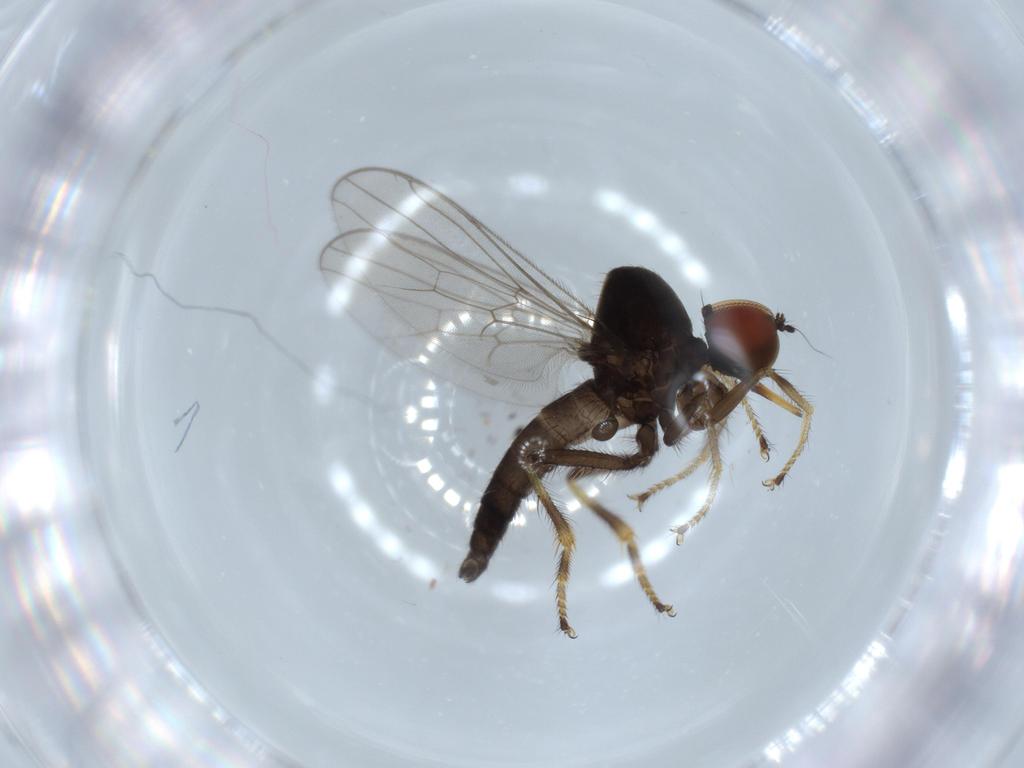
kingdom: Animalia
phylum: Arthropoda
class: Insecta
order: Diptera
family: Hybotidae
